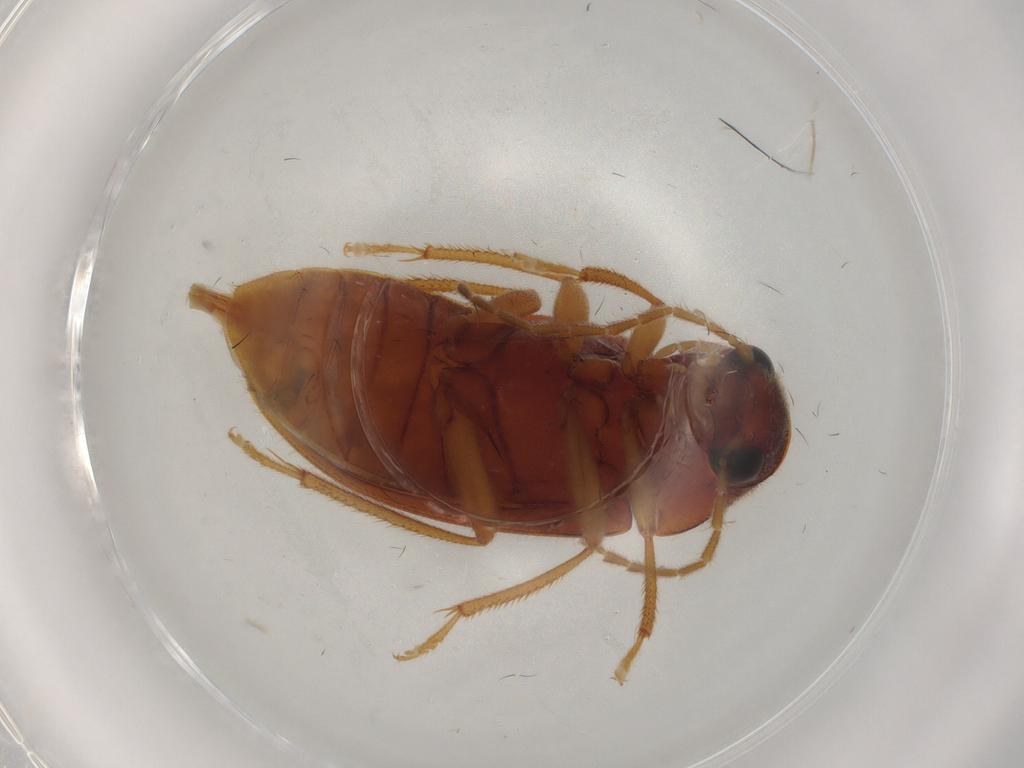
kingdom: Animalia
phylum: Arthropoda
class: Insecta
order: Coleoptera
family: Ptilodactylidae
